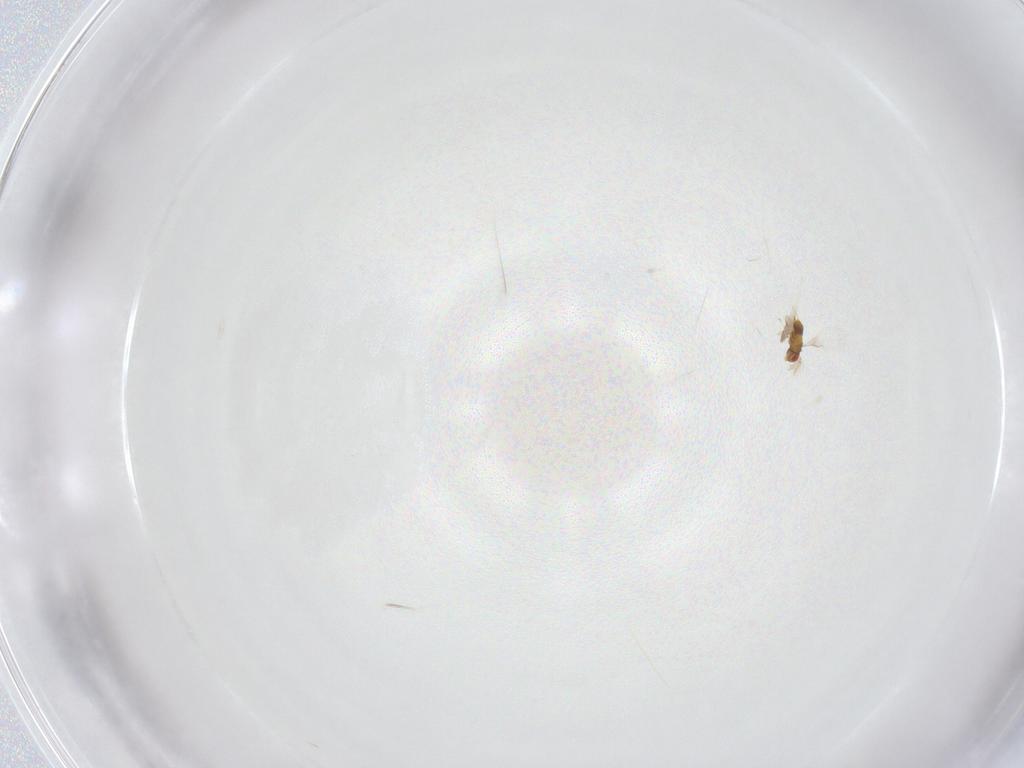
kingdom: Animalia
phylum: Arthropoda
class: Insecta
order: Hymenoptera
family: Trichogrammatidae
